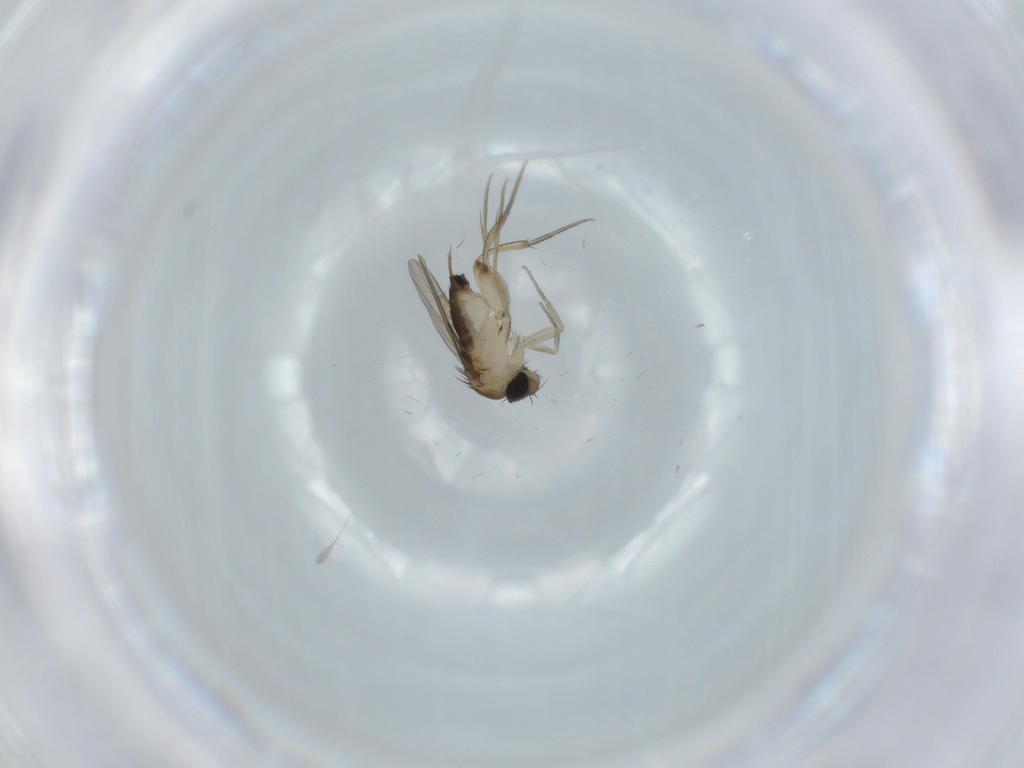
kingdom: Animalia
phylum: Arthropoda
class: Insecta
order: Diptera
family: Phoridae
